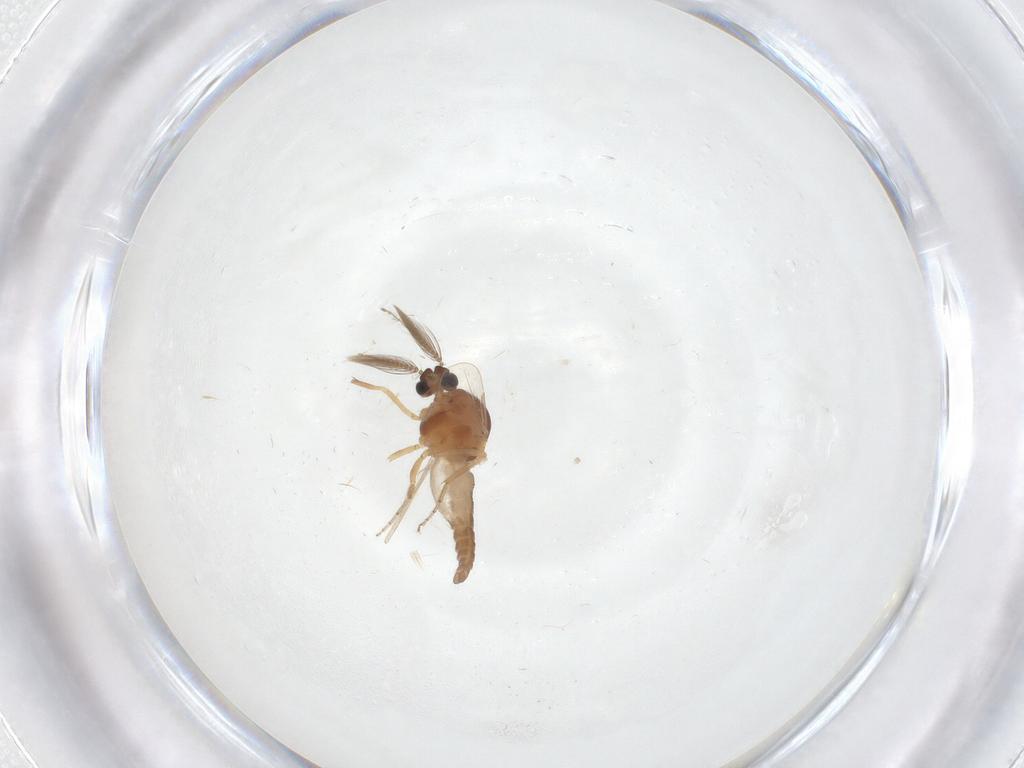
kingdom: Animalia
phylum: Arthropoda
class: Insecta
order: Diptera
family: Ceratopogonidae
